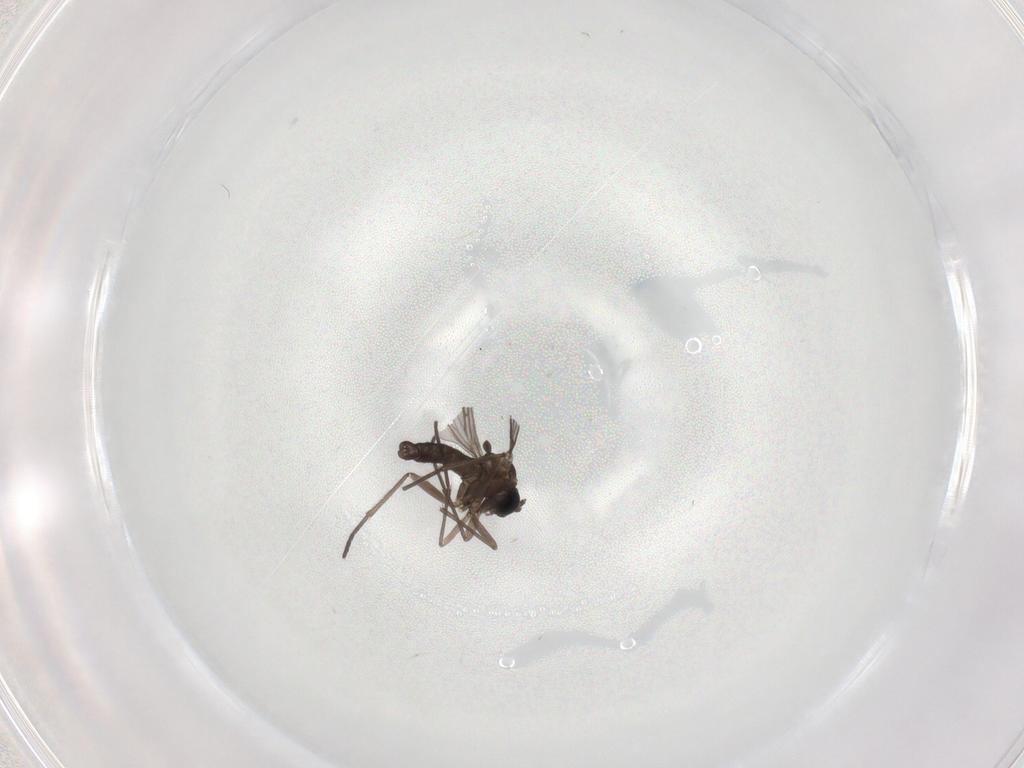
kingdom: Animalia
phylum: Arthropoda
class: Insecta
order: Diptera
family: Sciaridae
